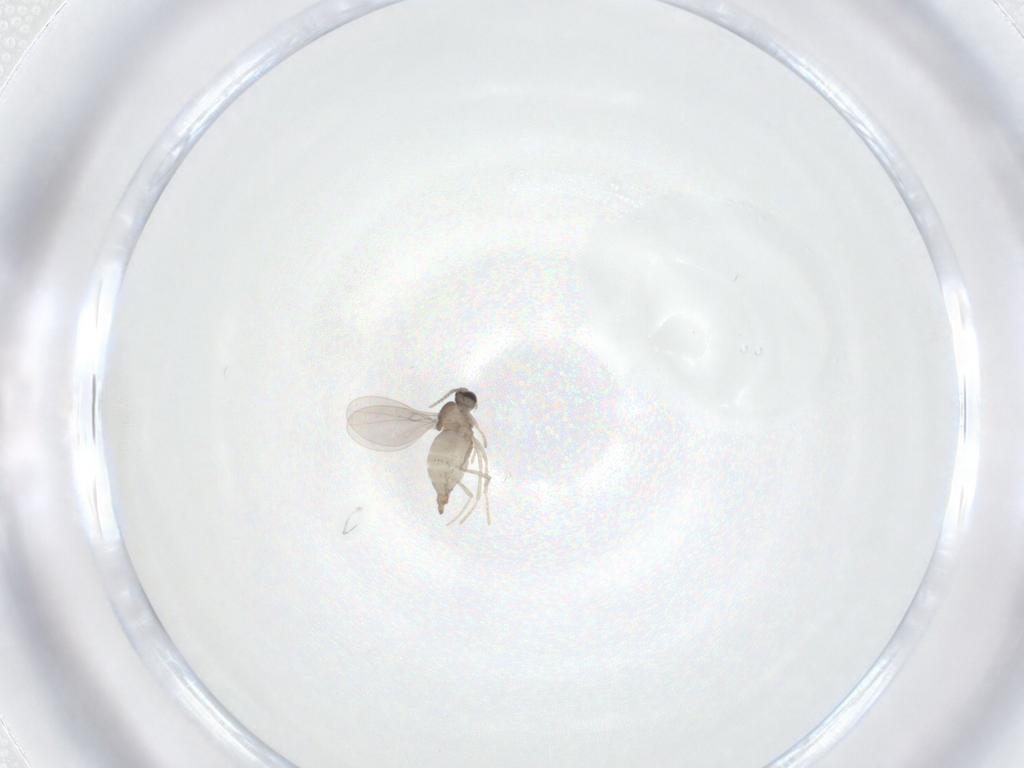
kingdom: Animalia
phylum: Arthropoda
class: Insecta
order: Diptera
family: Cecidomyiidae
